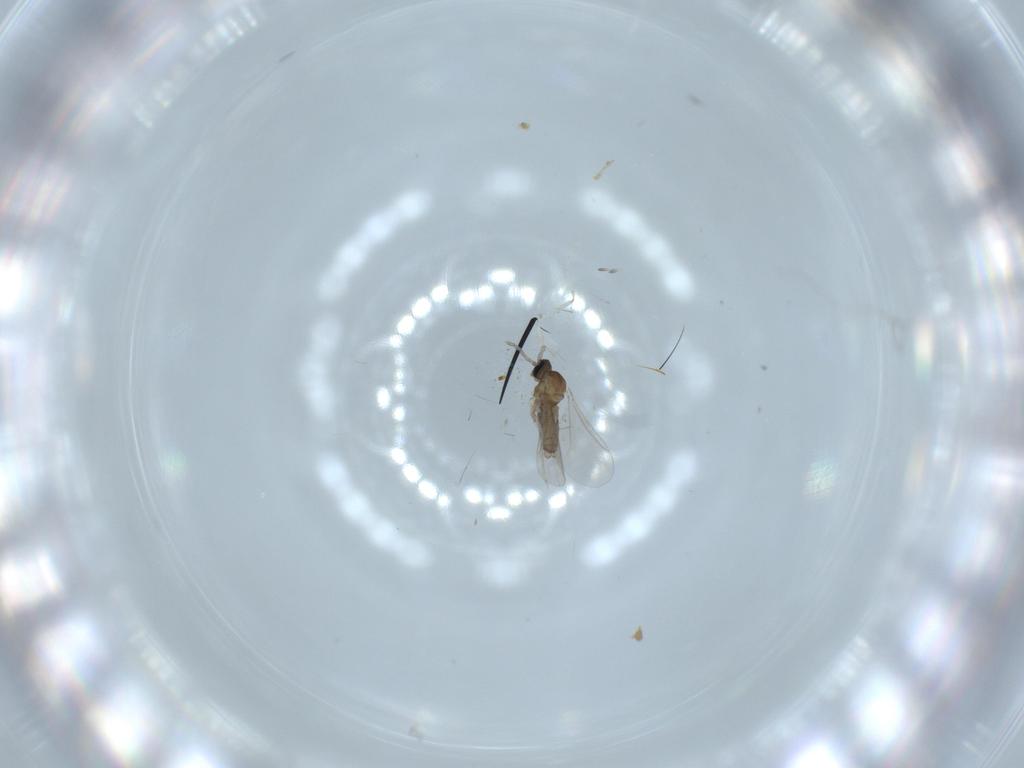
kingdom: Animalia
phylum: Arthropoda
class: Insecta
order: Diptera
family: Cecidomyiidae
